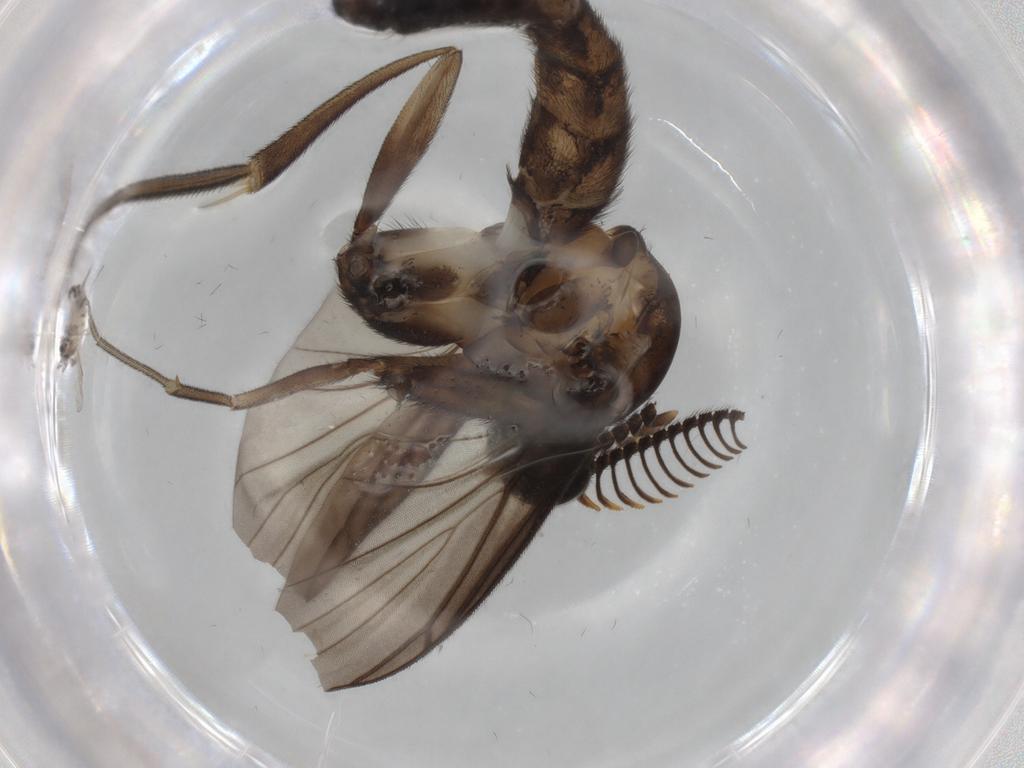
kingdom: Animalia
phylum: Arthropoda
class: Insecta
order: Diptera
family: Hybotidae
